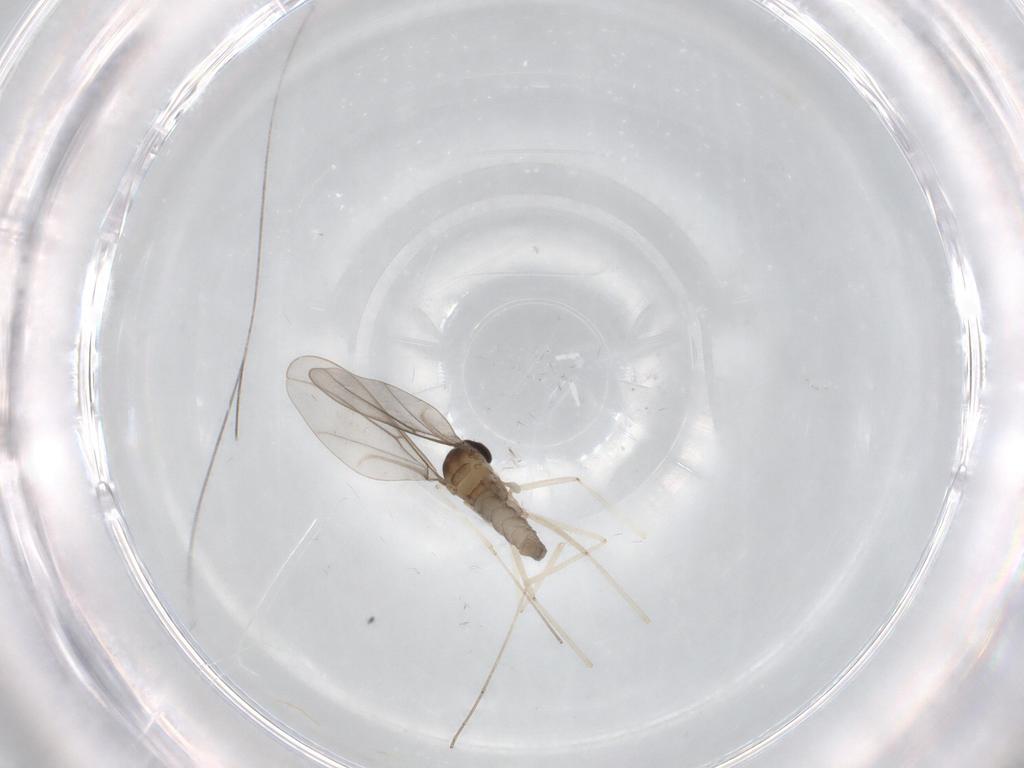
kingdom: Animalia
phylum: Arthropoda
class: Insecta
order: Diptera
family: Cecidomyiidae
